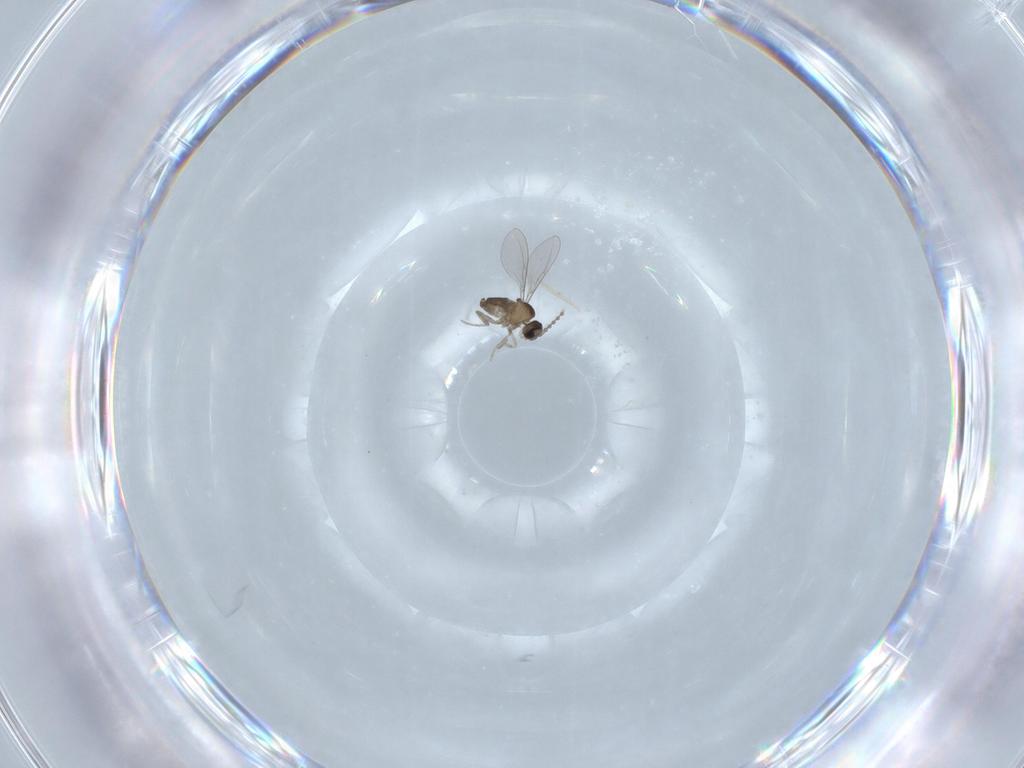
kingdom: Animalia
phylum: Arthropoda
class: Insecta
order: Diptera
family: Cecidomyiidae
